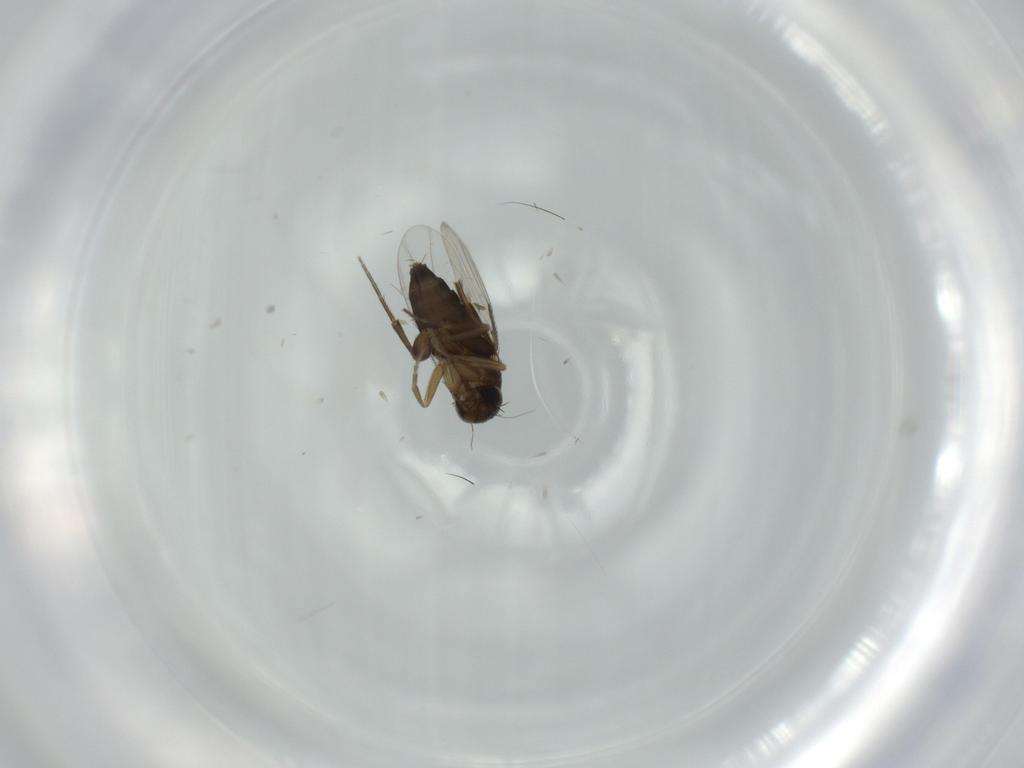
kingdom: Animalia
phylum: Arthropoda
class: Insecta
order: Diptera
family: Phoridae
